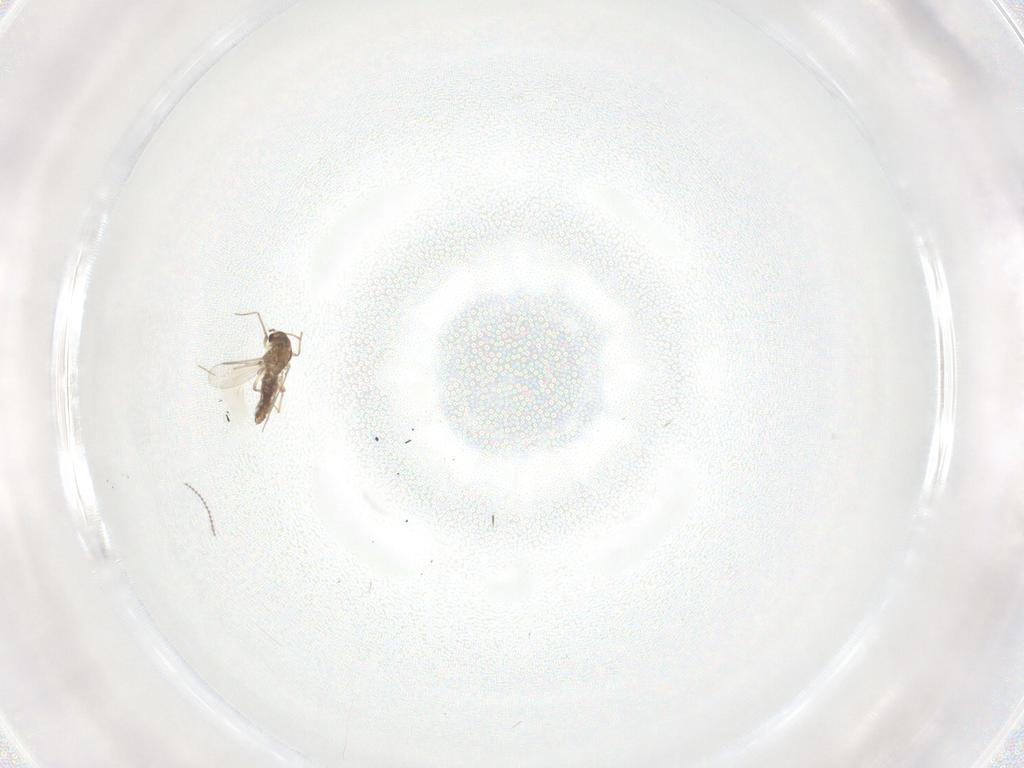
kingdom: Animalia
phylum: Arthropoda
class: Insecta
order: Diptera
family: Cecidomyiidae
